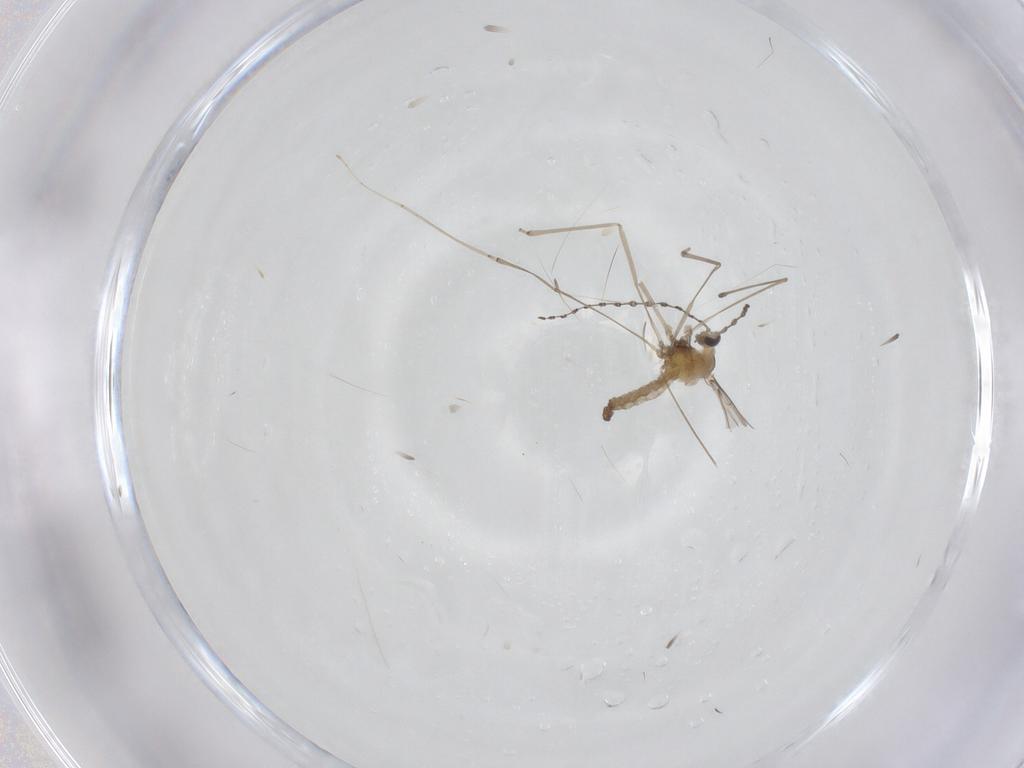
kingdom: Animalia
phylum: Arthropoda
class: Insecta
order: Diptera
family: Cecidomyiidae
